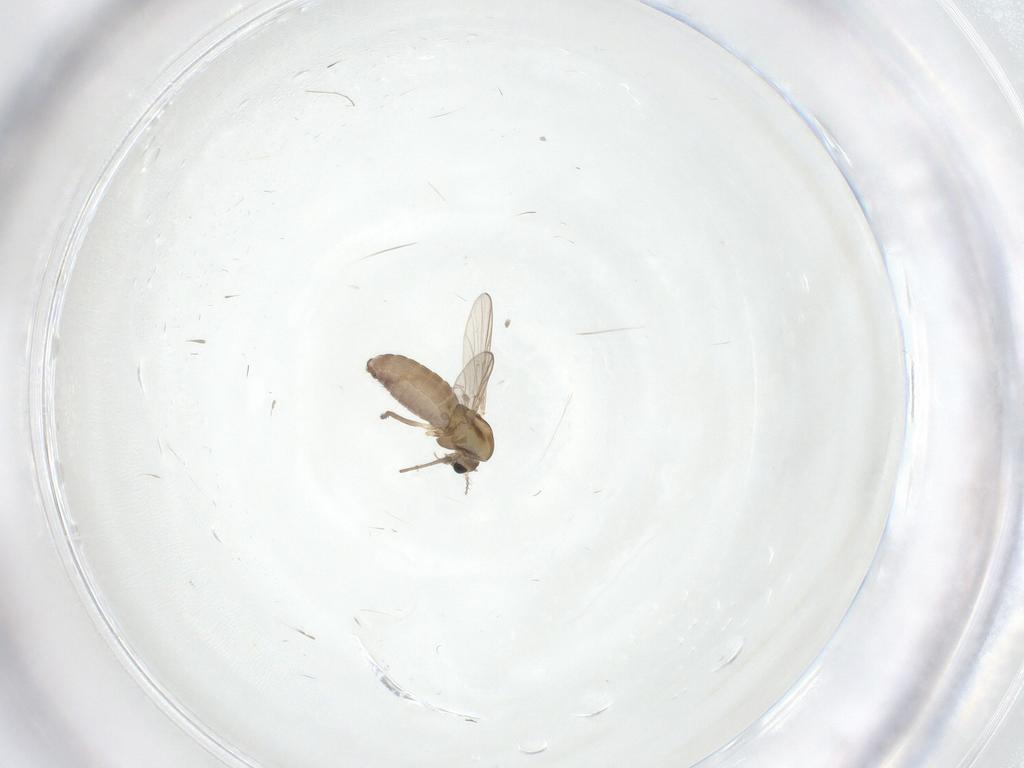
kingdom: Animalia
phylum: Arthropoda
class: Insecta
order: Diptera
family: Chironomidae
